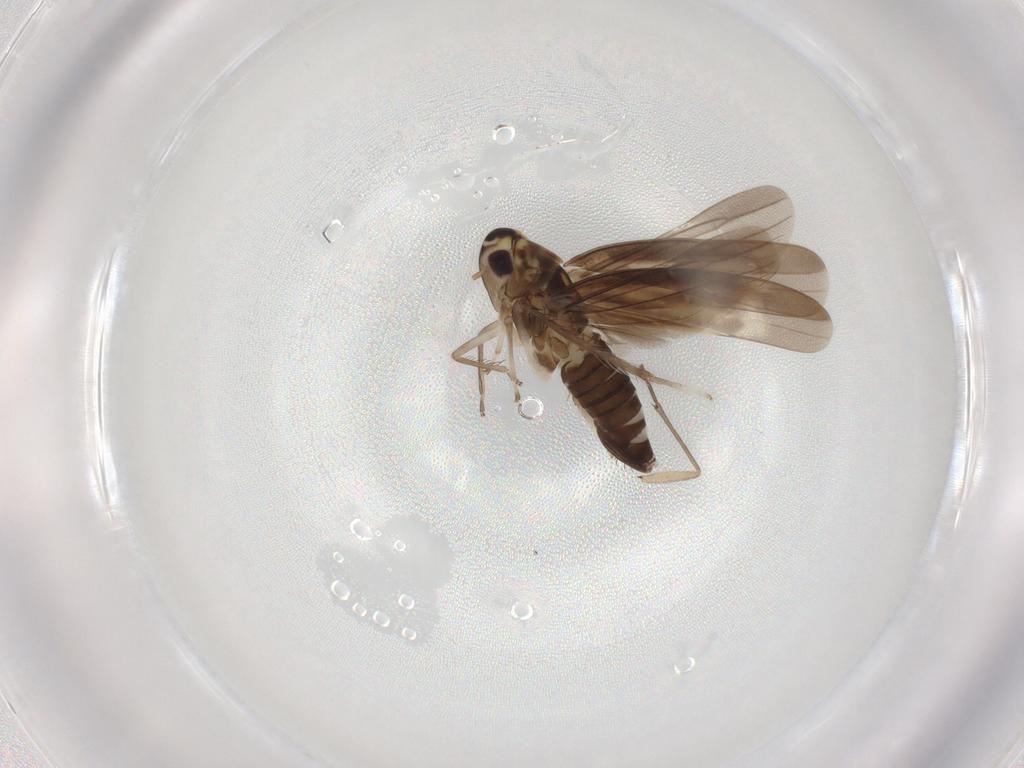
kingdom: Animalia
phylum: Arthropoda
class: Insecta
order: Hemiptera
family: Cicadellidae
